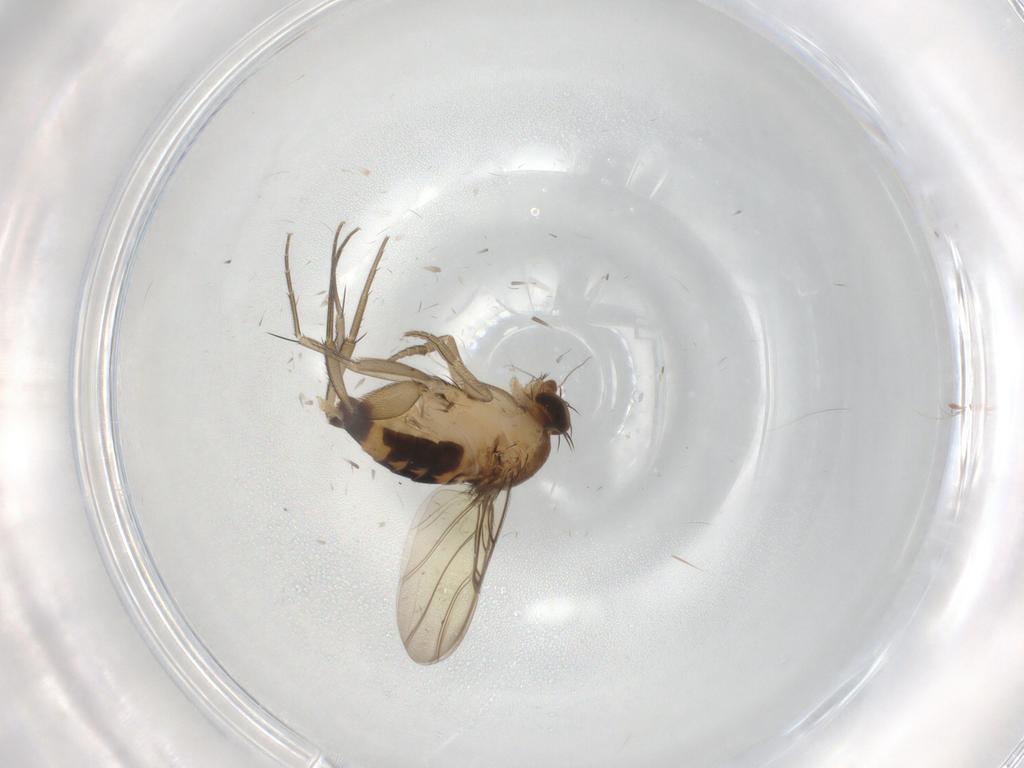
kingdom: Animalia
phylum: Arthropoda
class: Insecta
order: Diptera
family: Phoridae
